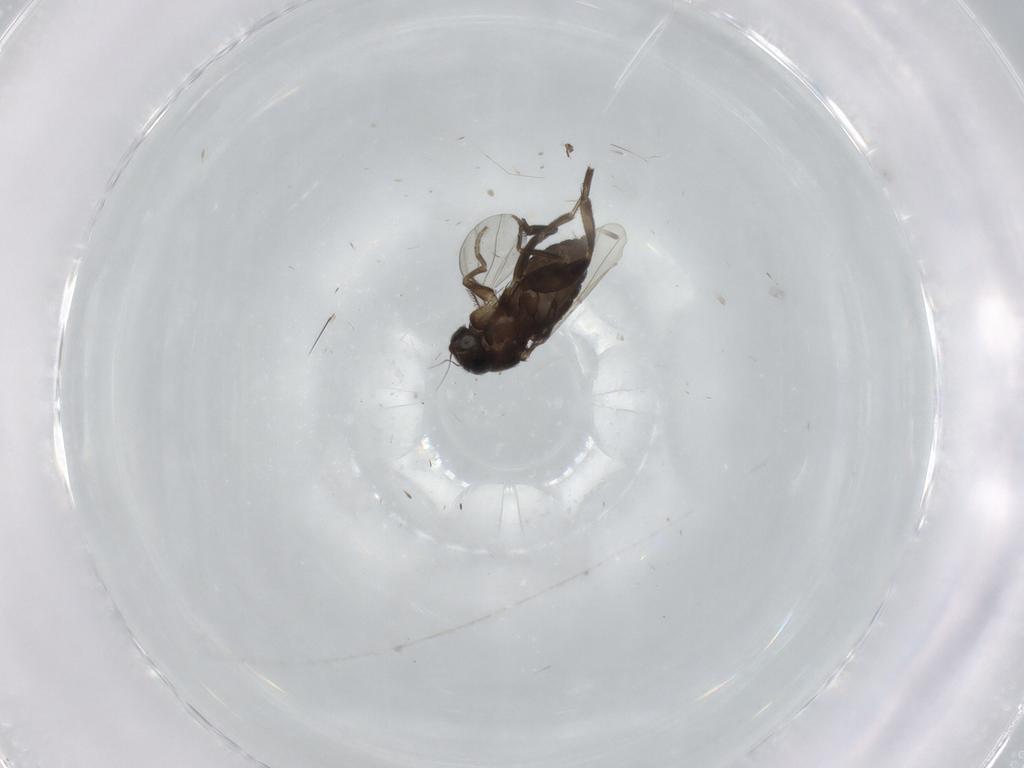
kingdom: Animalia
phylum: Arthropoda
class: Insecta
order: Diptera
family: Phoridae
